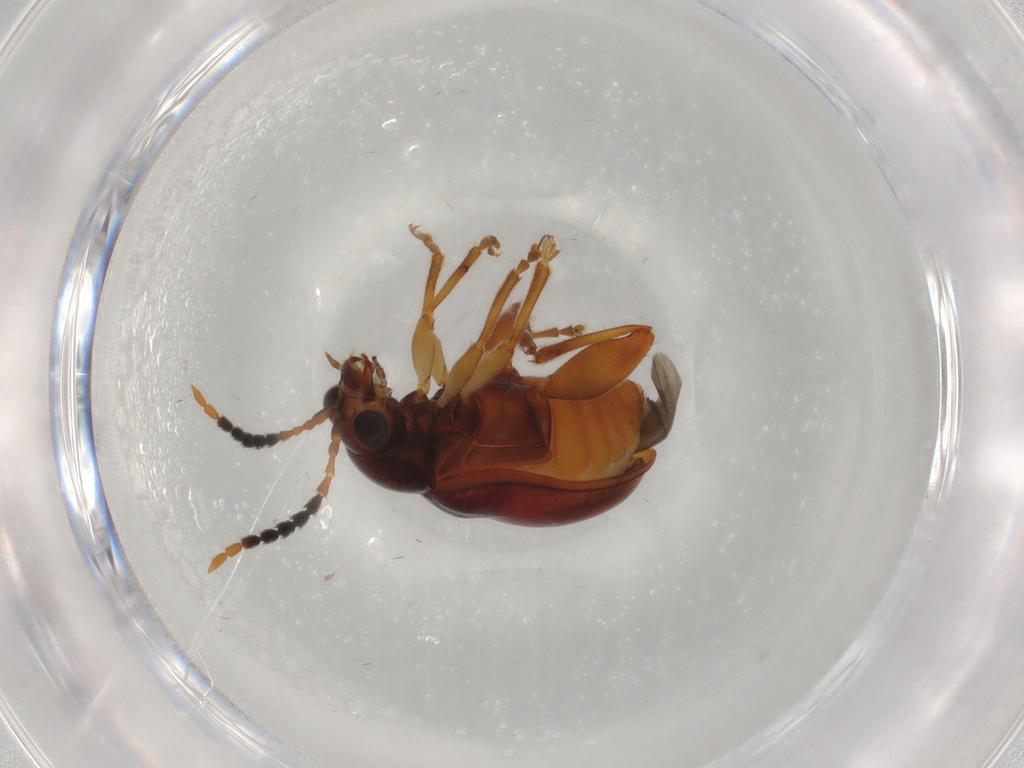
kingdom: Animalia
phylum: Arthropoda
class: Insecta
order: Coleoptera
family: Chrysomelidae
